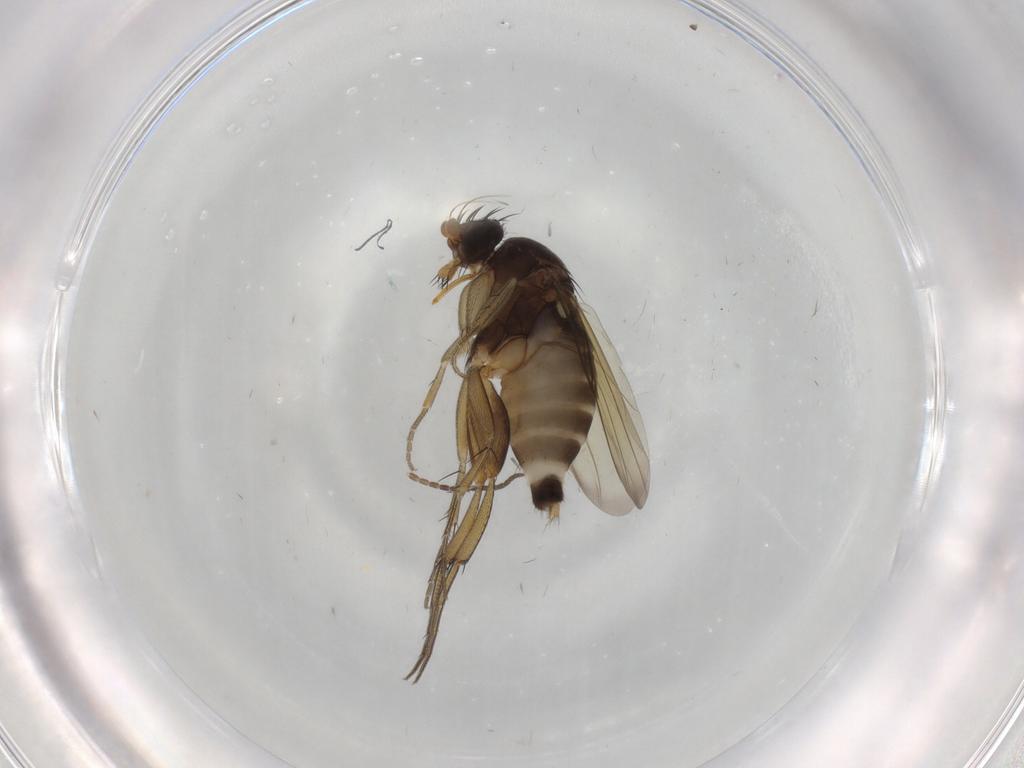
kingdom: Animalia
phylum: Arthropoda
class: Insecta
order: Diptera
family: Phoridae
